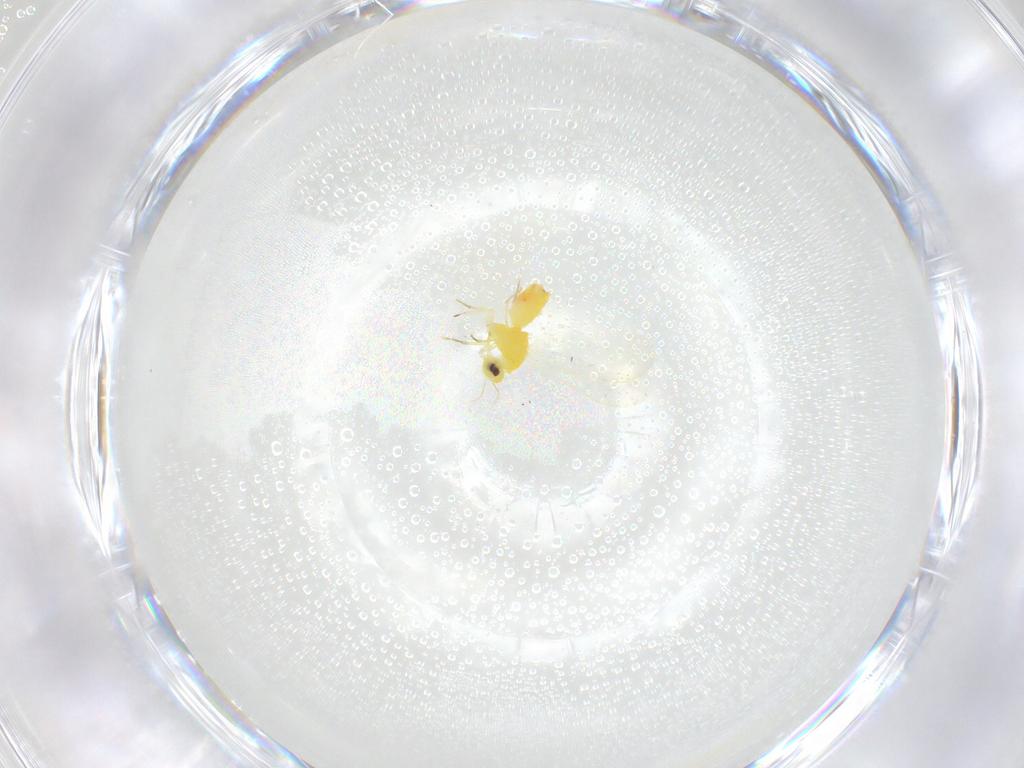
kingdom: Animalia
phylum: Arthropoda
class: Insecta
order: Hemiptera
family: Aleyrodidae
